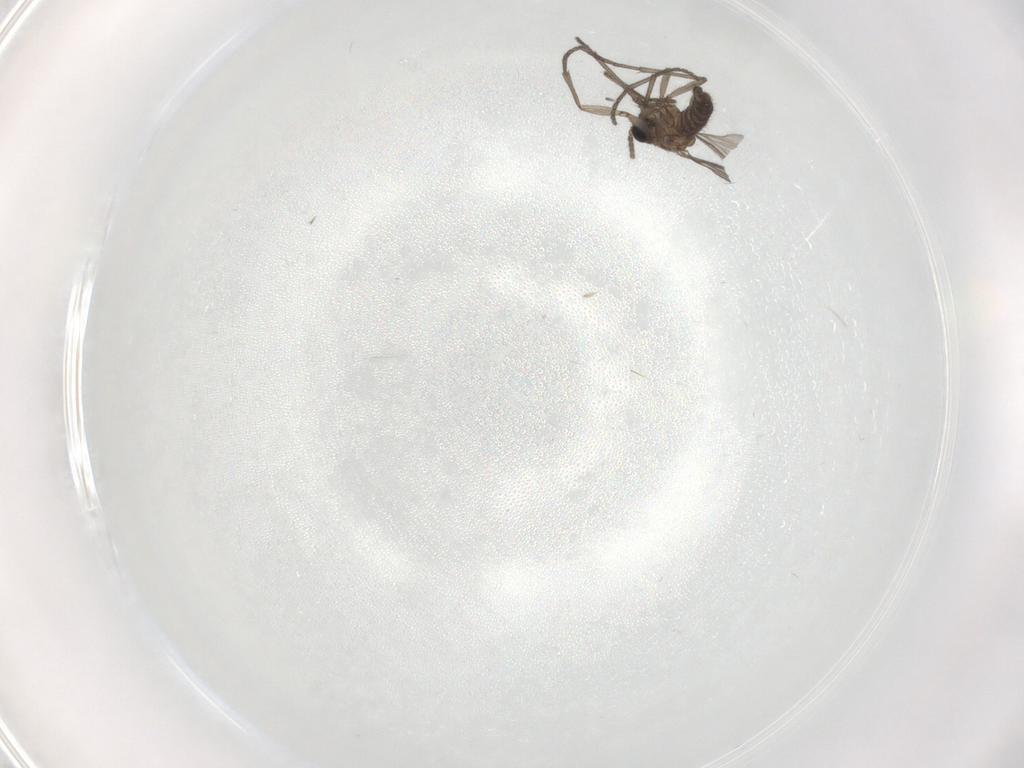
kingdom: Animalia
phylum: Arthropoda
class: Insecta
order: Diptera
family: Sciaridae
